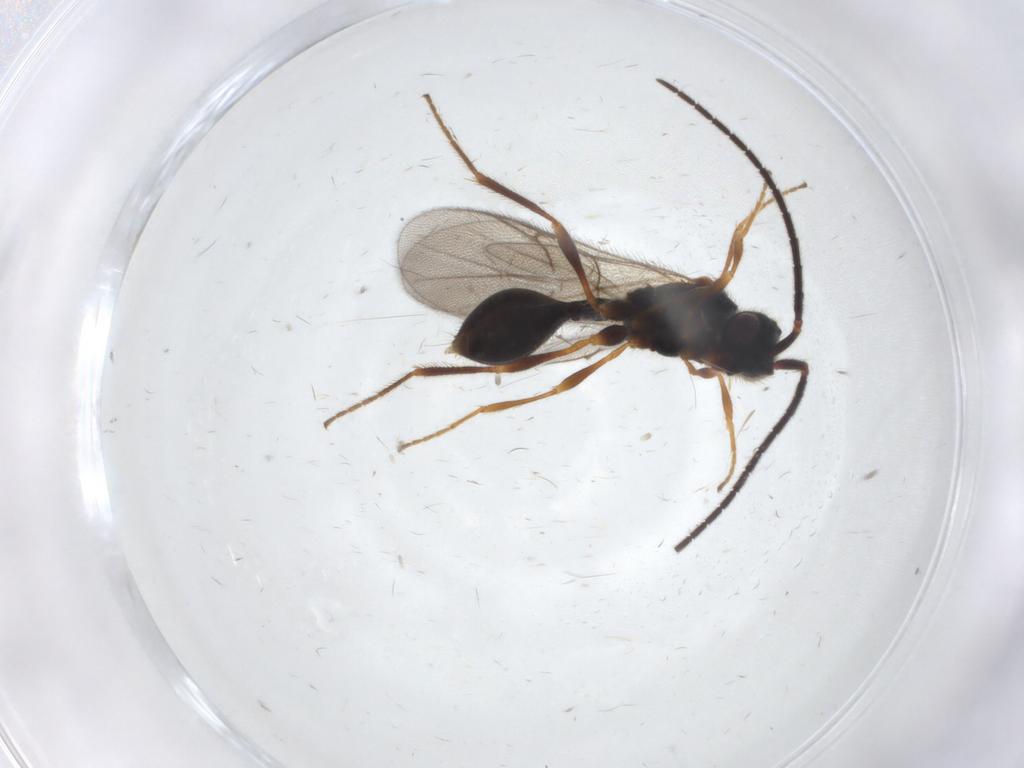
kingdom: Animalia
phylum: Arthropoda
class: Insecta
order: Hymenoptera
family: Diapriidae
